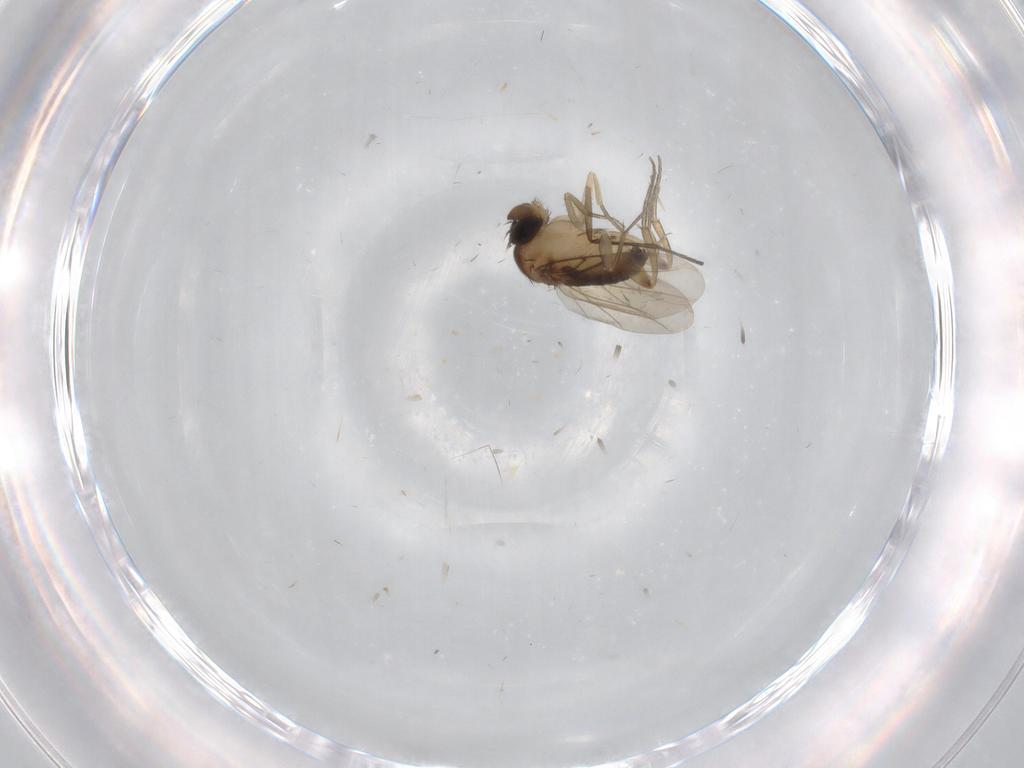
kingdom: Animalia
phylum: Arthropoda
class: Insecta
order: Diptera
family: Phoridae
